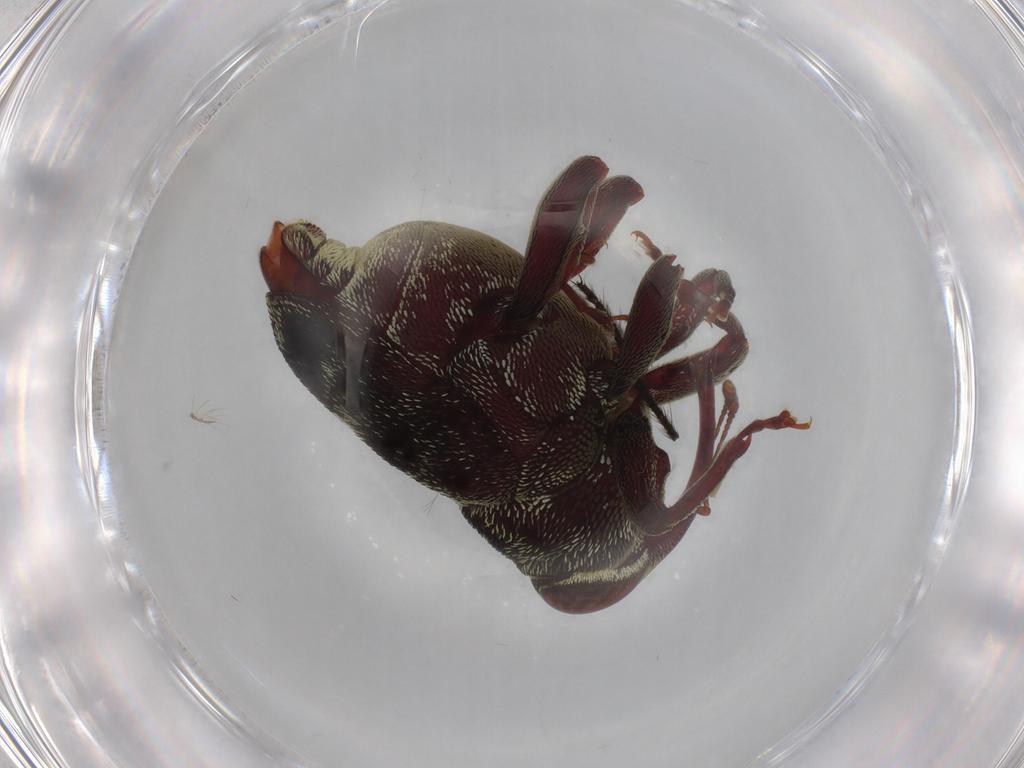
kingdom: Animalia
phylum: Arthropoda
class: Insecta
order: Coleoptera
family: Curculionidae
